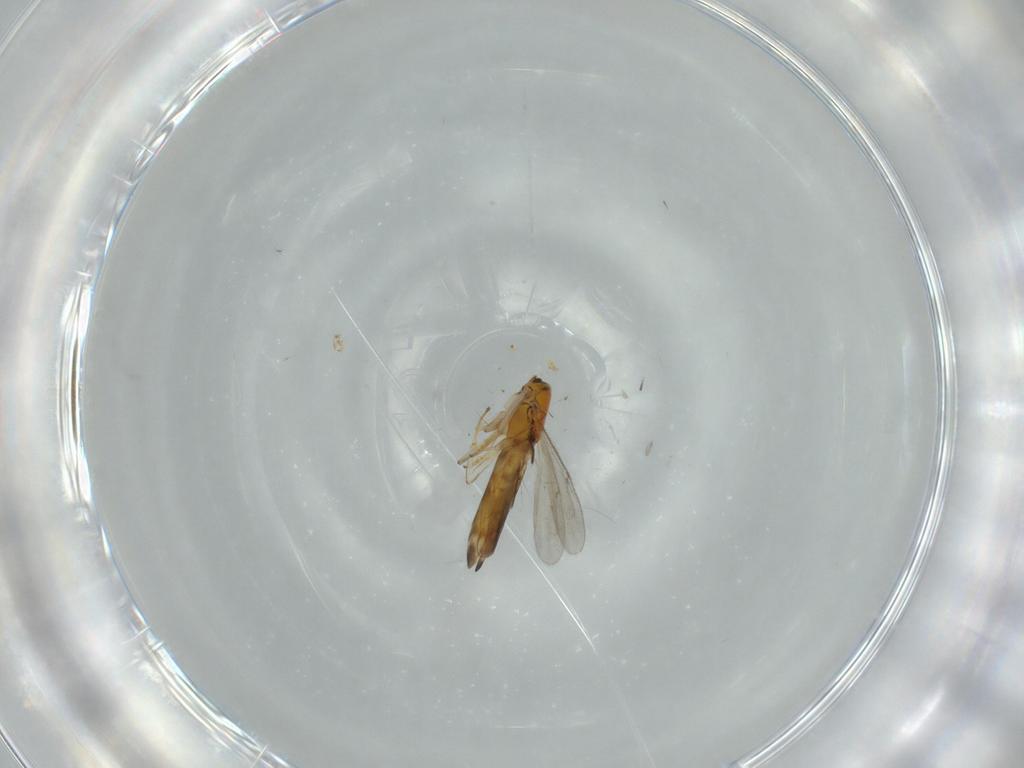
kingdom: Animalia
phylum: Arthropoda
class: Insecta
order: Hymenoptera
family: Encyrtidae
